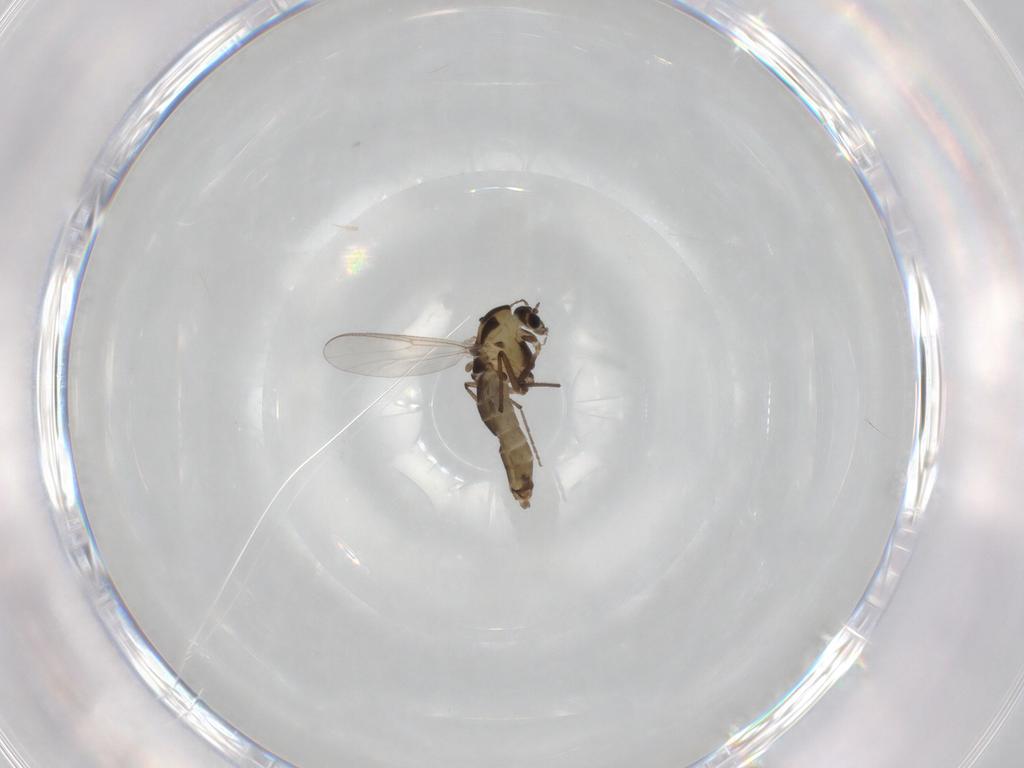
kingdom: Animalia
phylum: Arthropoda
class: Insecta
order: Diptera
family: Chironomidae
